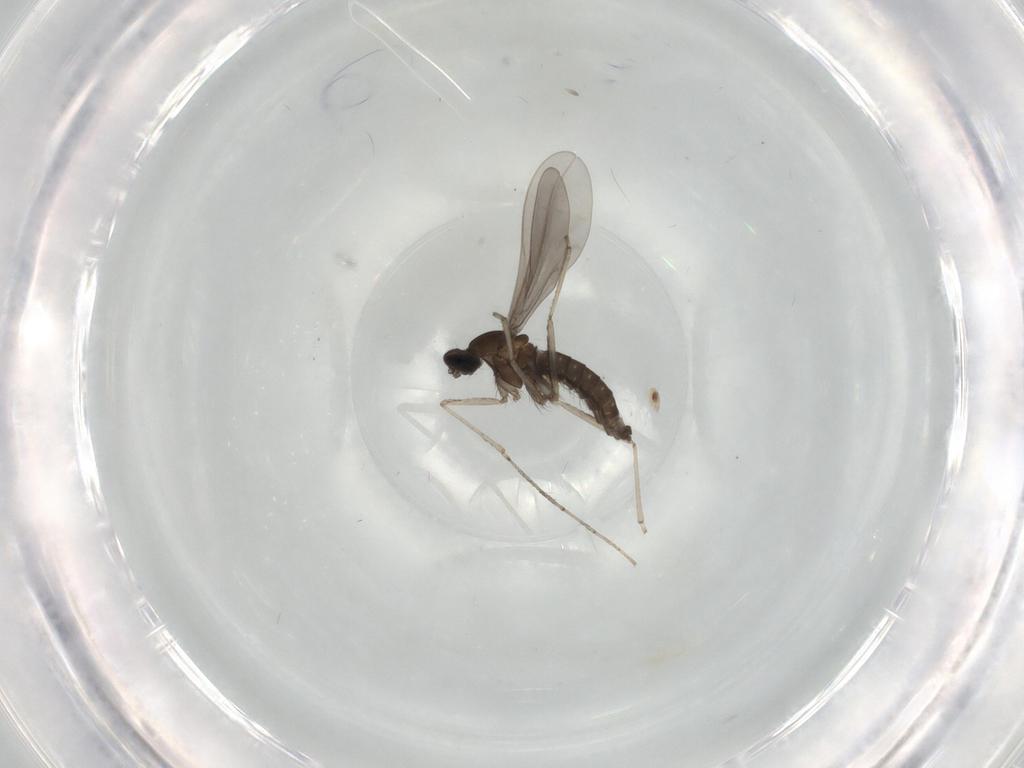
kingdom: Animalia
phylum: Arthropoda
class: Insecta
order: Diptera
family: Cecidomyiidae
